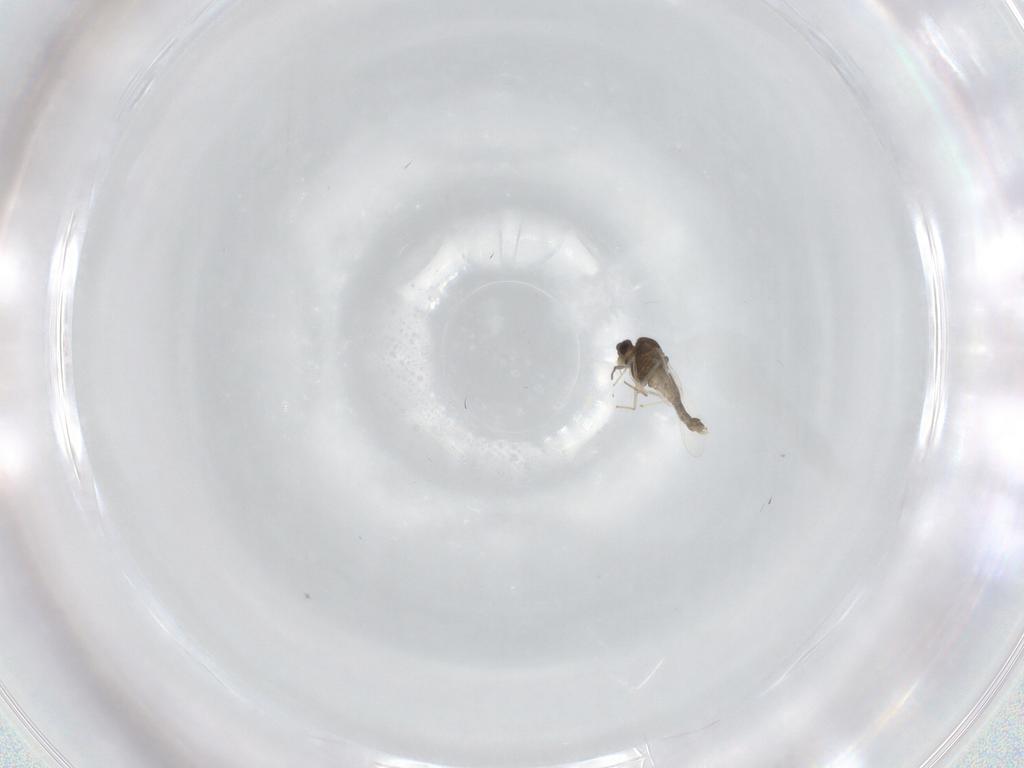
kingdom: Animalia
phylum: Arthropoda
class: Insecta
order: Diptera
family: Chironomidae
